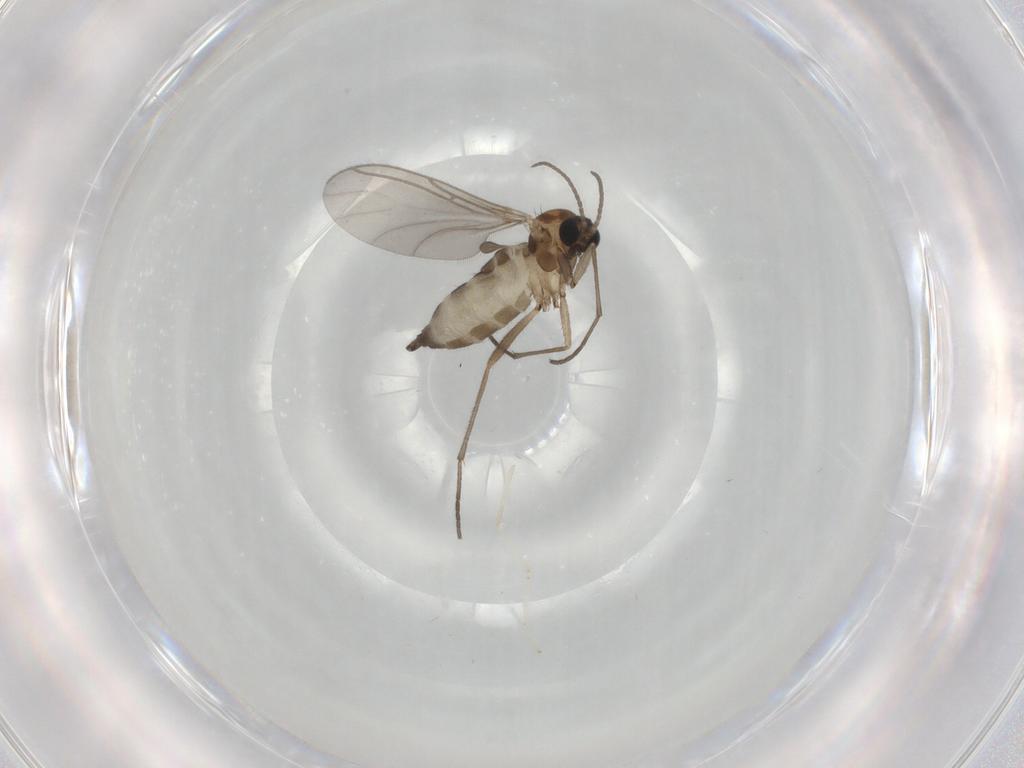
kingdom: Animalia
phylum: Arthropoda
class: Insecta
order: Diptera
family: Sciaridae
